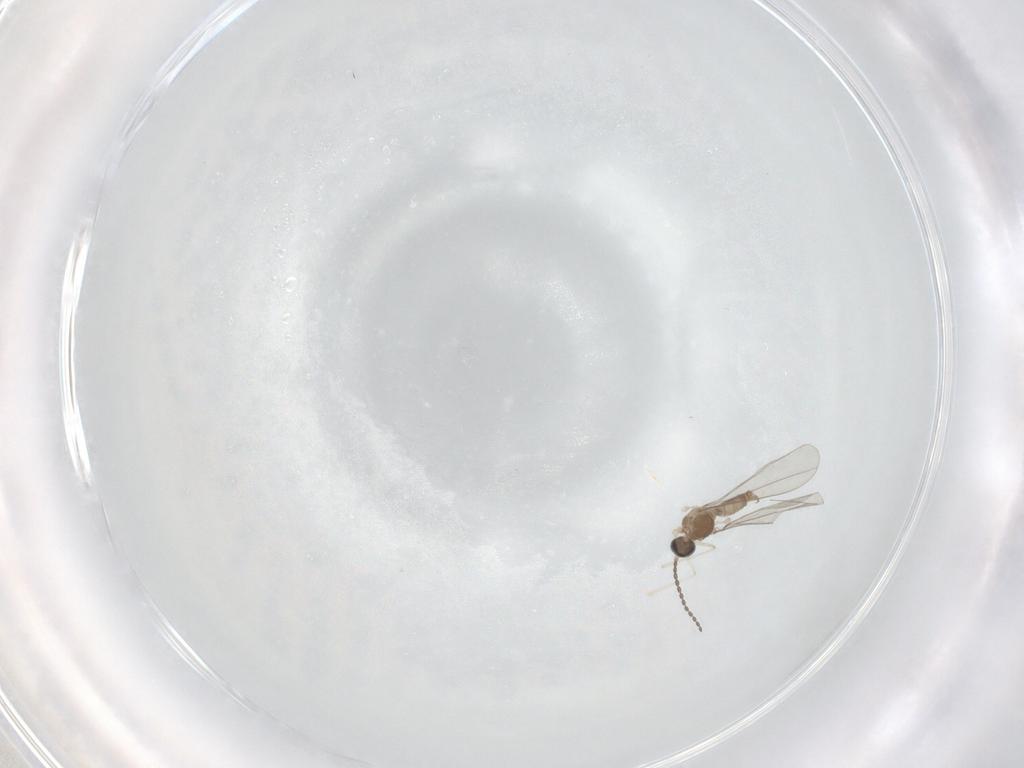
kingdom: Animalia
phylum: Arthropoda
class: Insecta
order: Diptera
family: Cecidomyiidae
